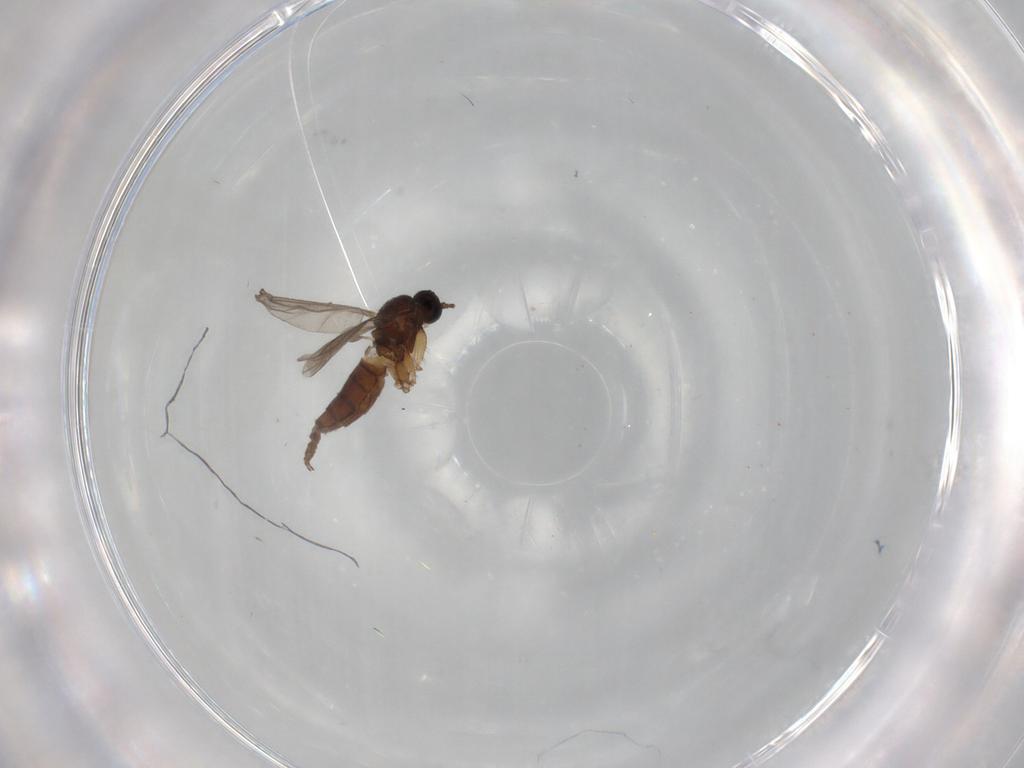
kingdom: Animalia
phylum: Arthropoda
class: Insecta
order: Diptera
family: Sciaridae
